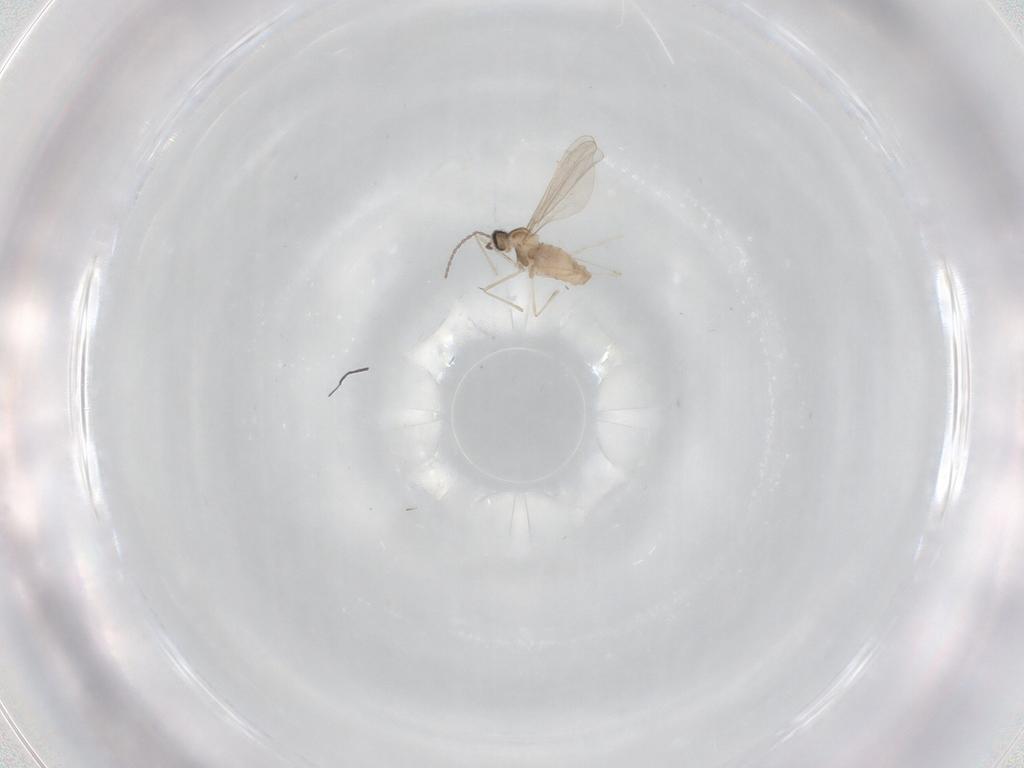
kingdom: Animalia
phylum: Arthropoda
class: Insecta
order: Diptera
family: Cecidomyiidae
